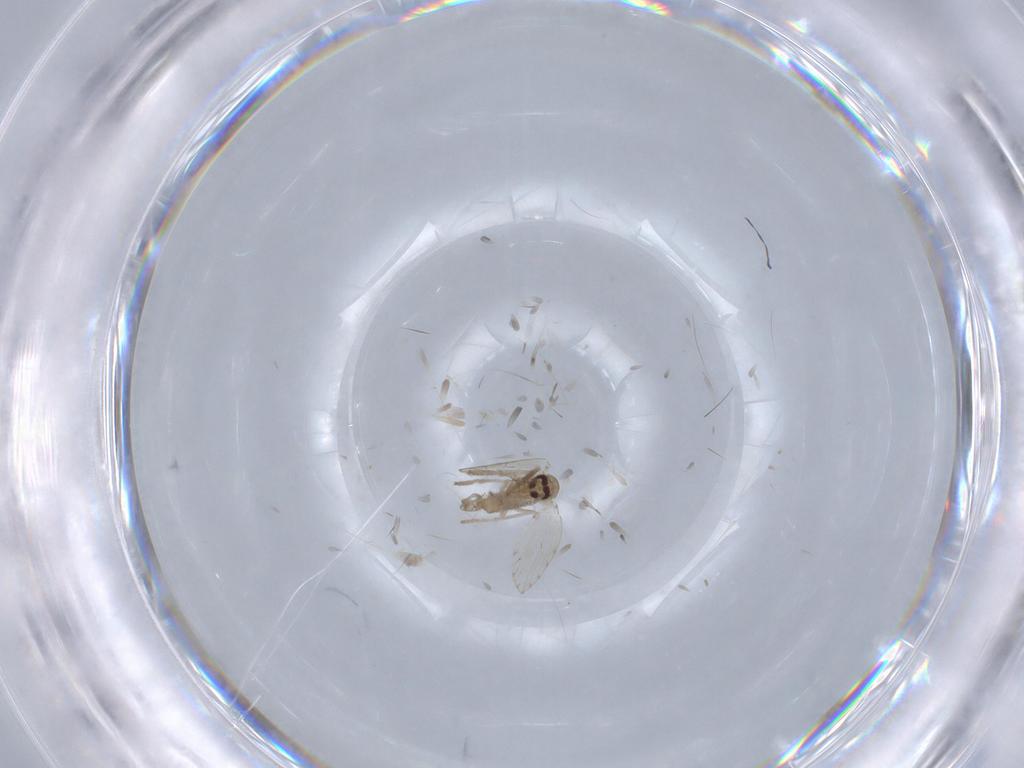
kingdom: Animalia
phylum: Arthropoda
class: Insecta
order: Diptera
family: Psychodidae
